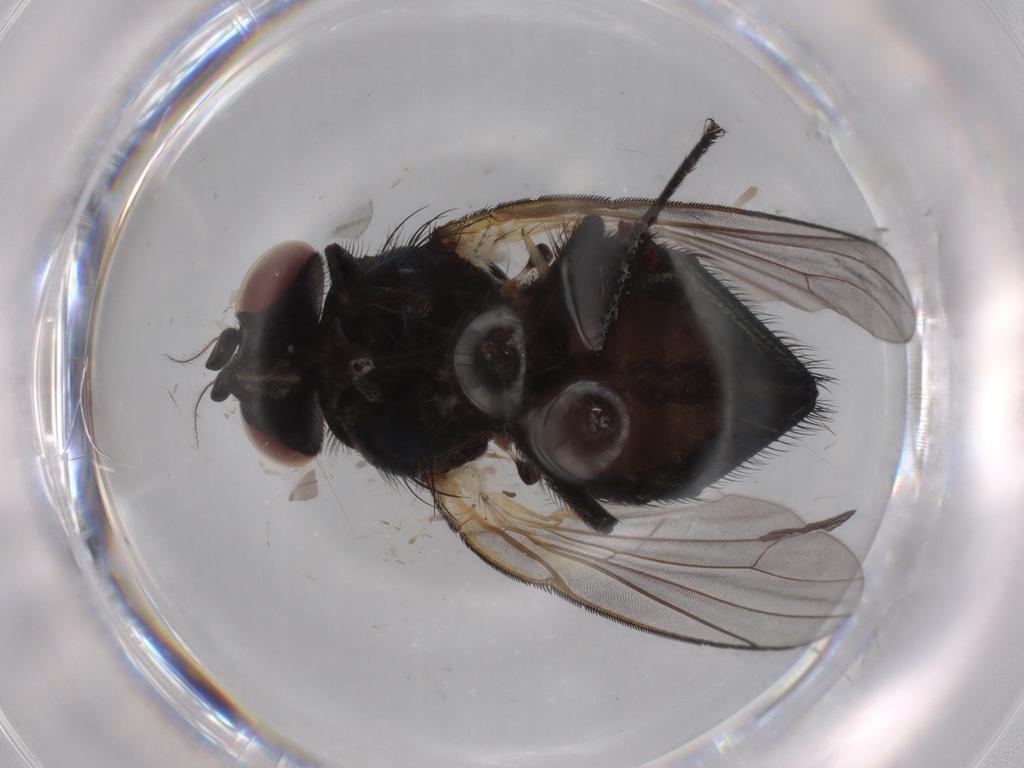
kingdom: Animalia
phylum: Arthropoda
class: Insecta
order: Diptera
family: Lonchaeidae
